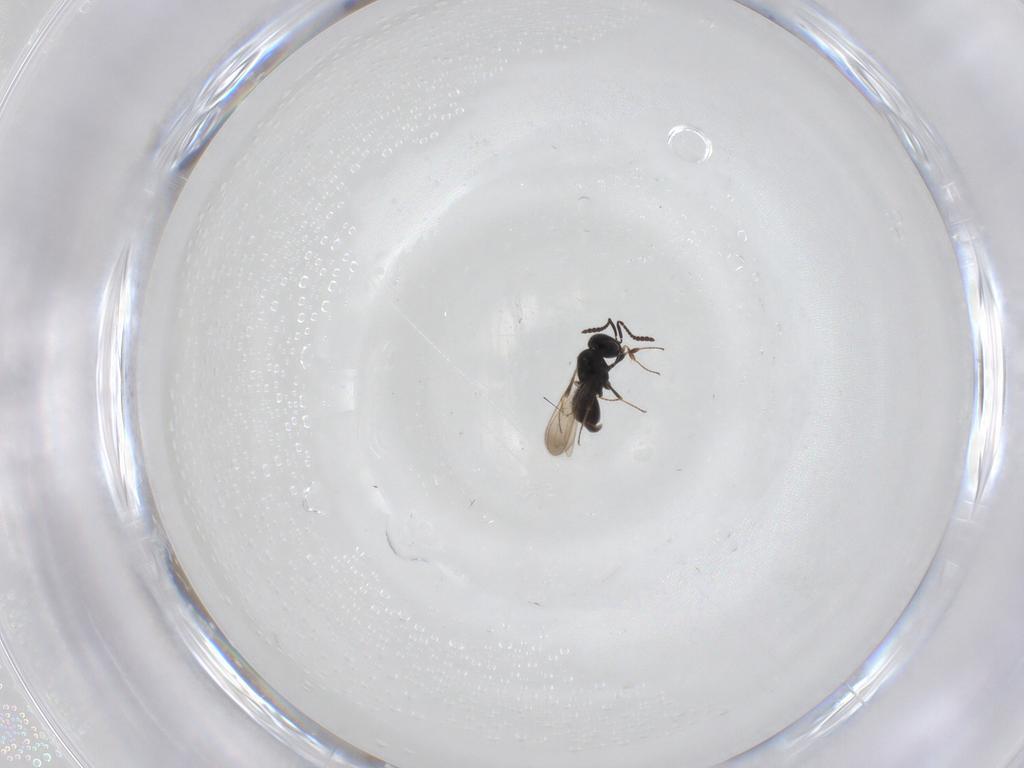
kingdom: Animalia
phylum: Arthropoda
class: Insecta
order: Hymenoptera
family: Scelionidae
